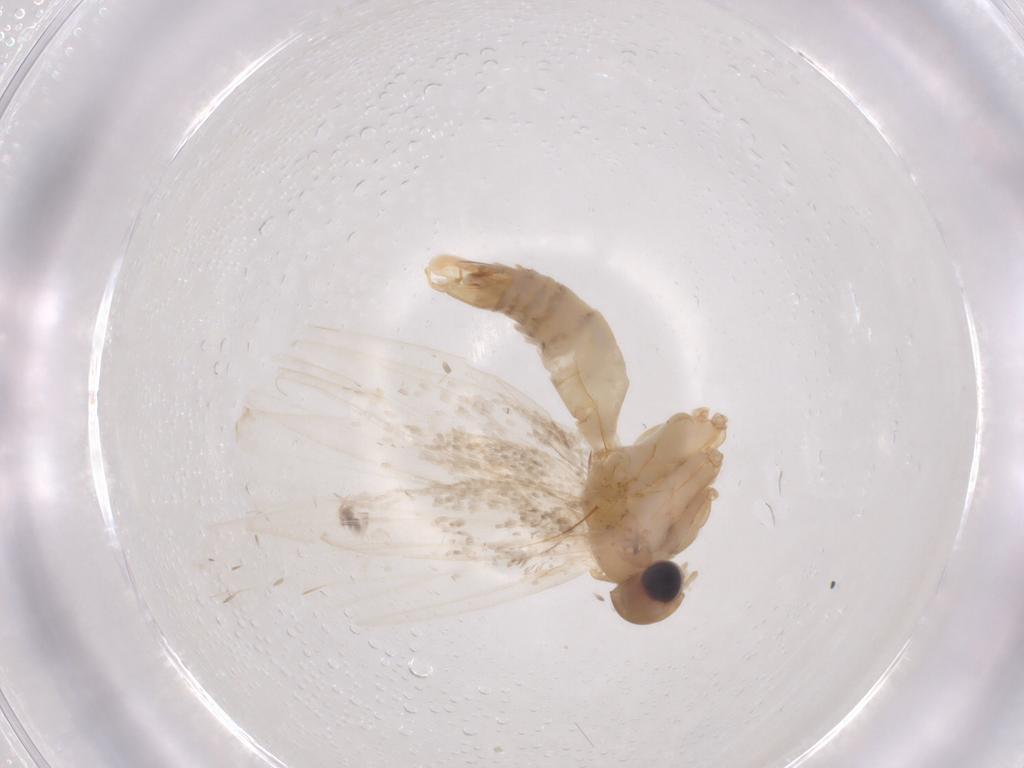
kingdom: Animalia
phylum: Arthropoda
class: Insecta
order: Lepidoptera
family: Autostichidae
